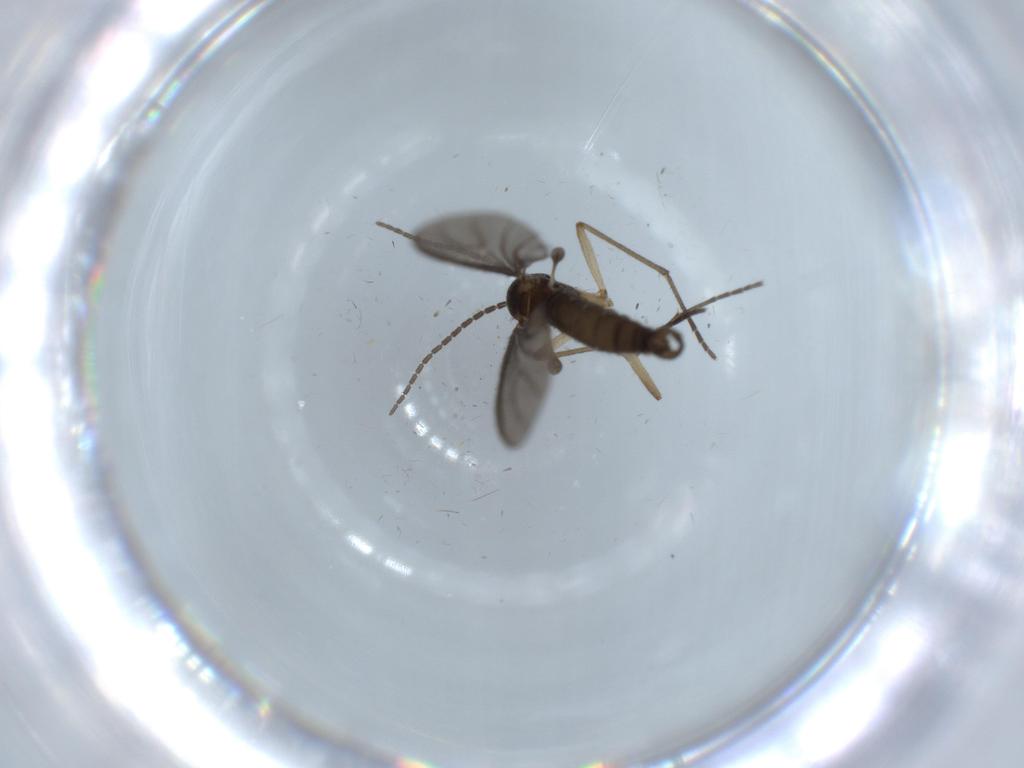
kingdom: Animalia
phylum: Arthropoda
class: Insecta
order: Diptera
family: Sciaridae
